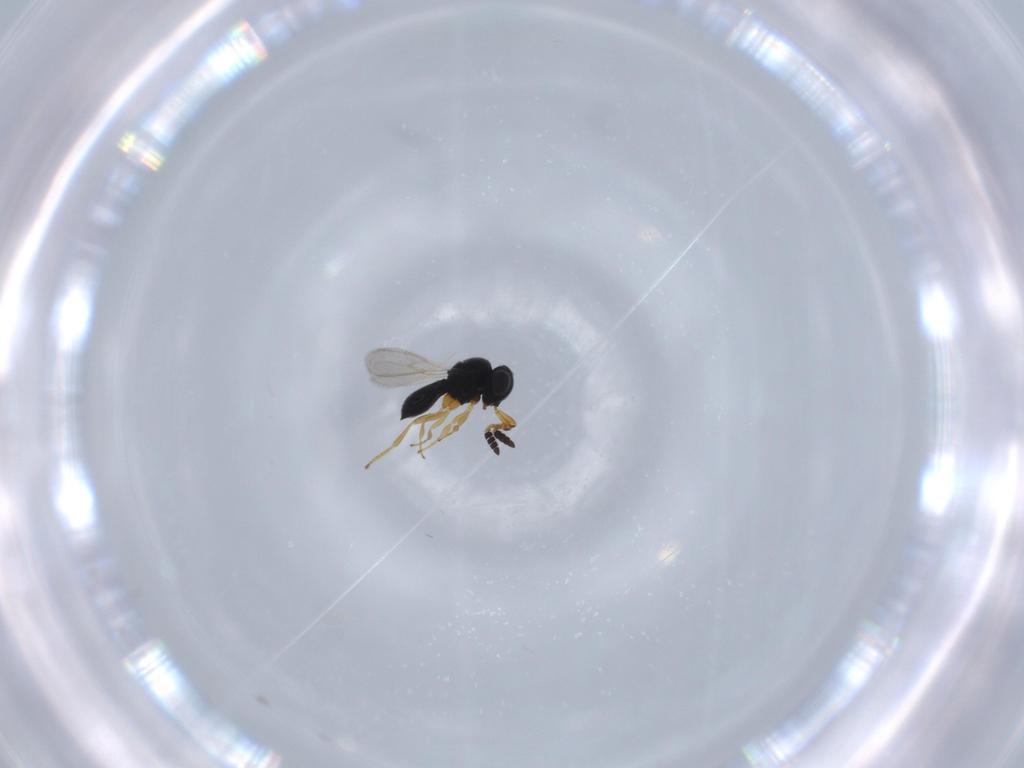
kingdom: Animalia
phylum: Arthropoda
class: Insecta
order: Hymenoptera
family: Scelionidae
